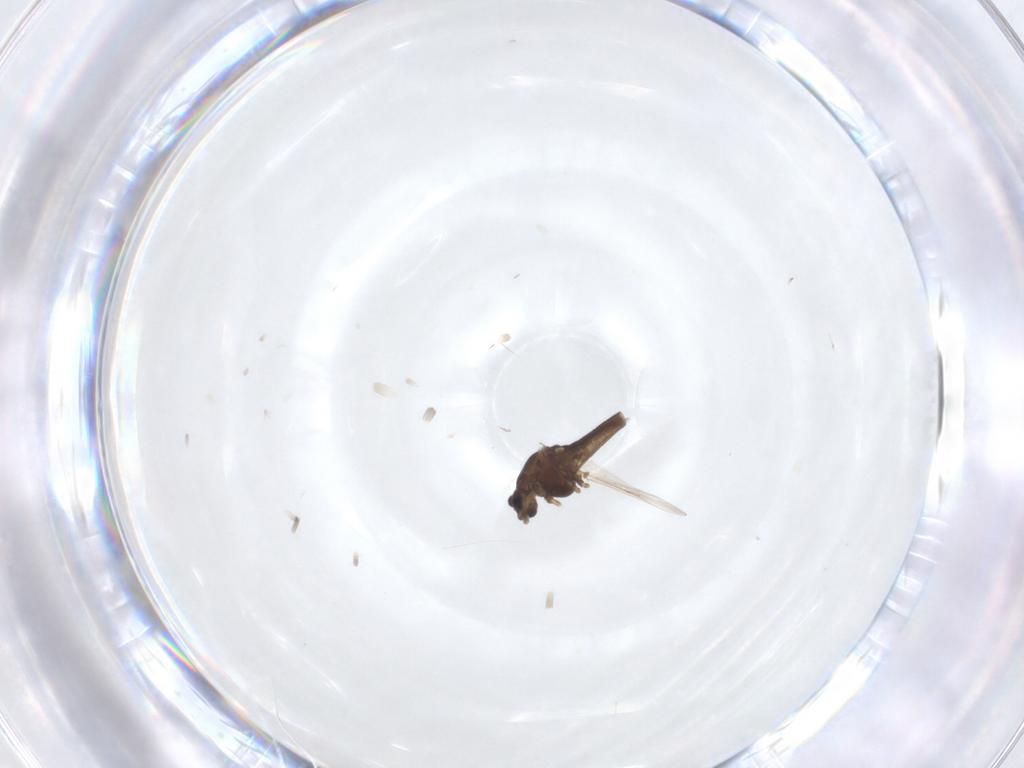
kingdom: Animalia
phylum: Arthropoda
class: Insecta
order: Diptera
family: Chironomidae
